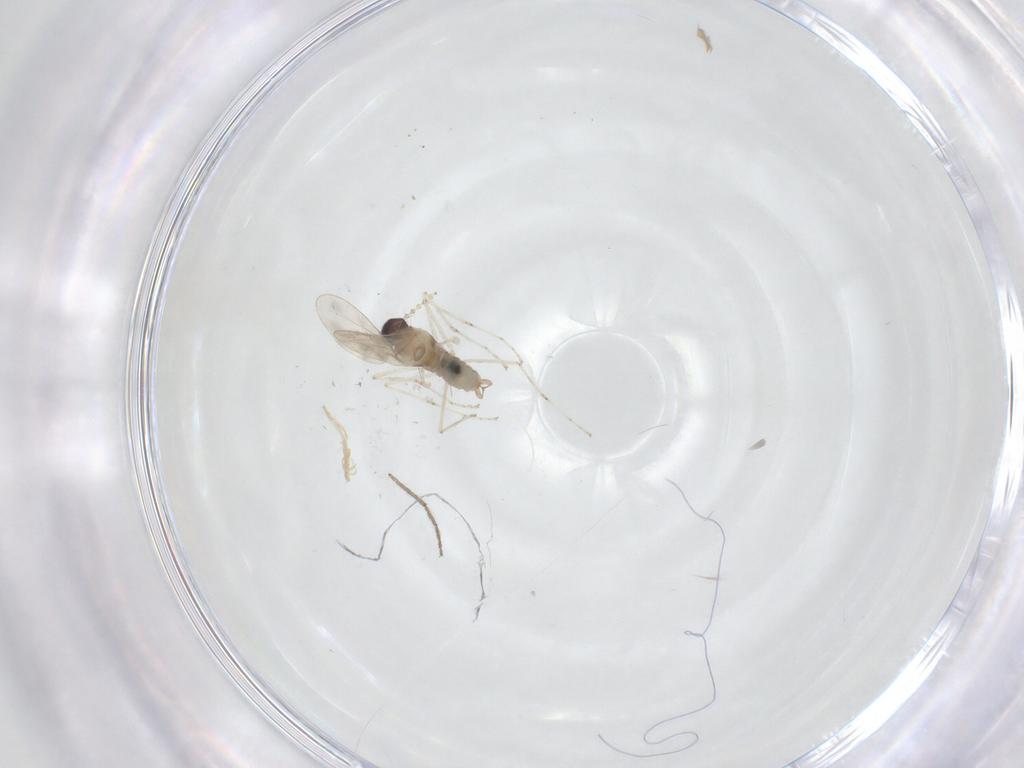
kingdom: Animalia
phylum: Arthropoda
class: Insecta
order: Diptera
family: Cecidomyiidae
